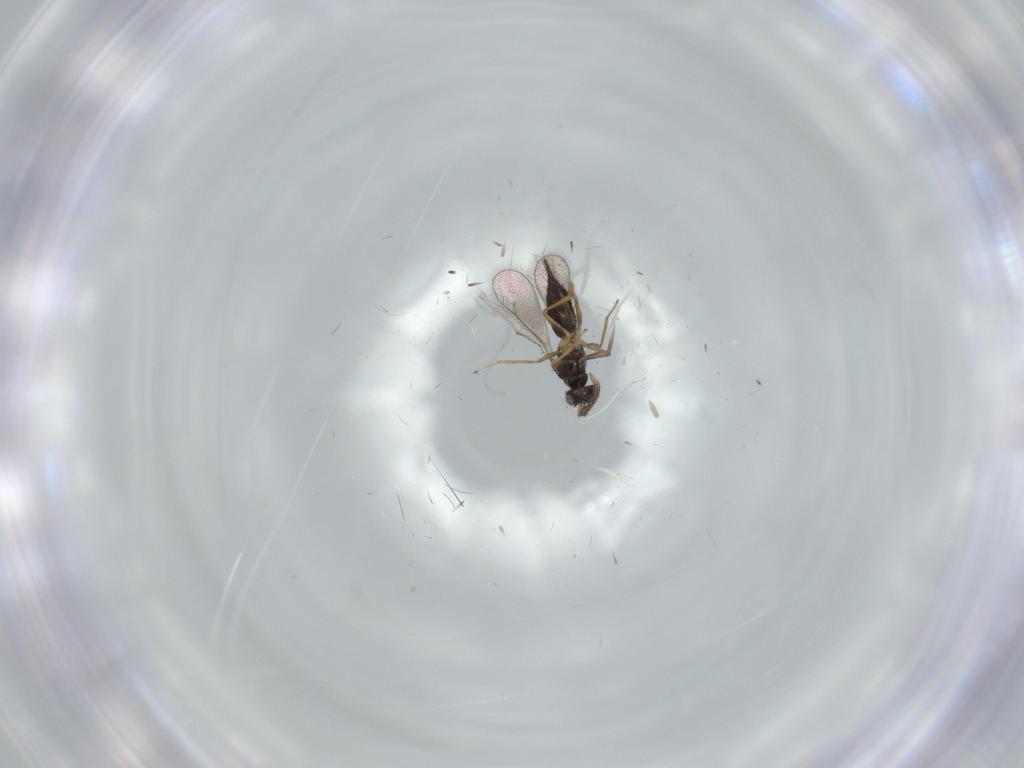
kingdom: Animalia
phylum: Arthropoda
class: Insecta
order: Hymenoptera
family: Eulophidae
